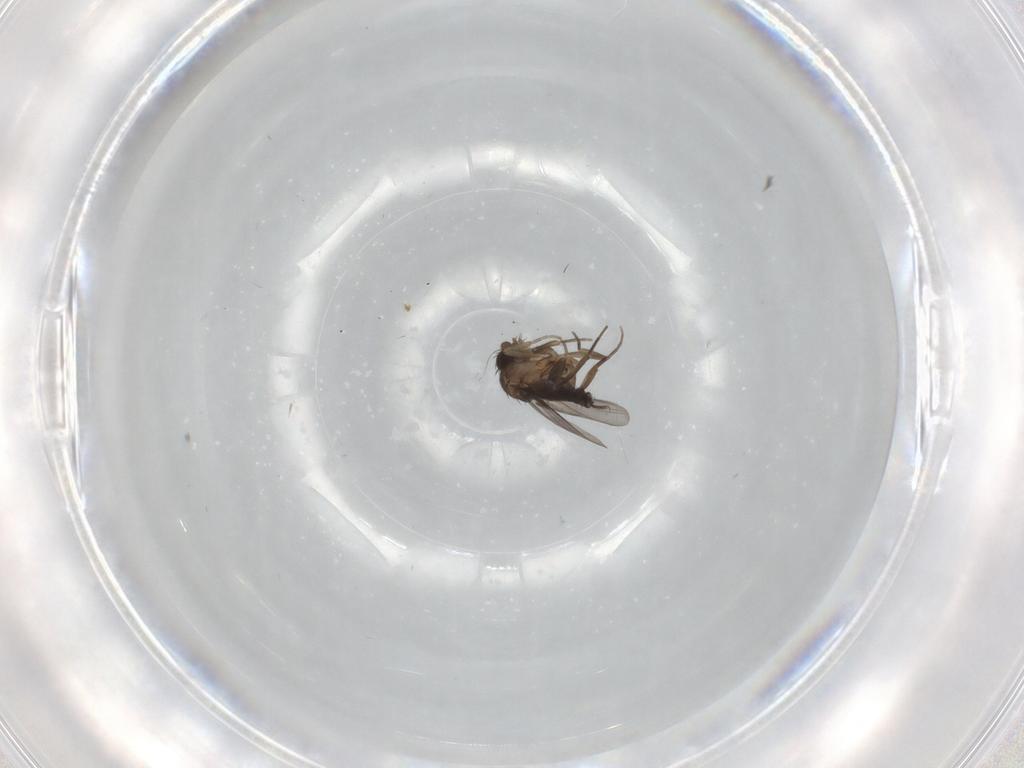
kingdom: Animalia
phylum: Arthropoda
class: Insecta
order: Diptera
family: Phoridae
